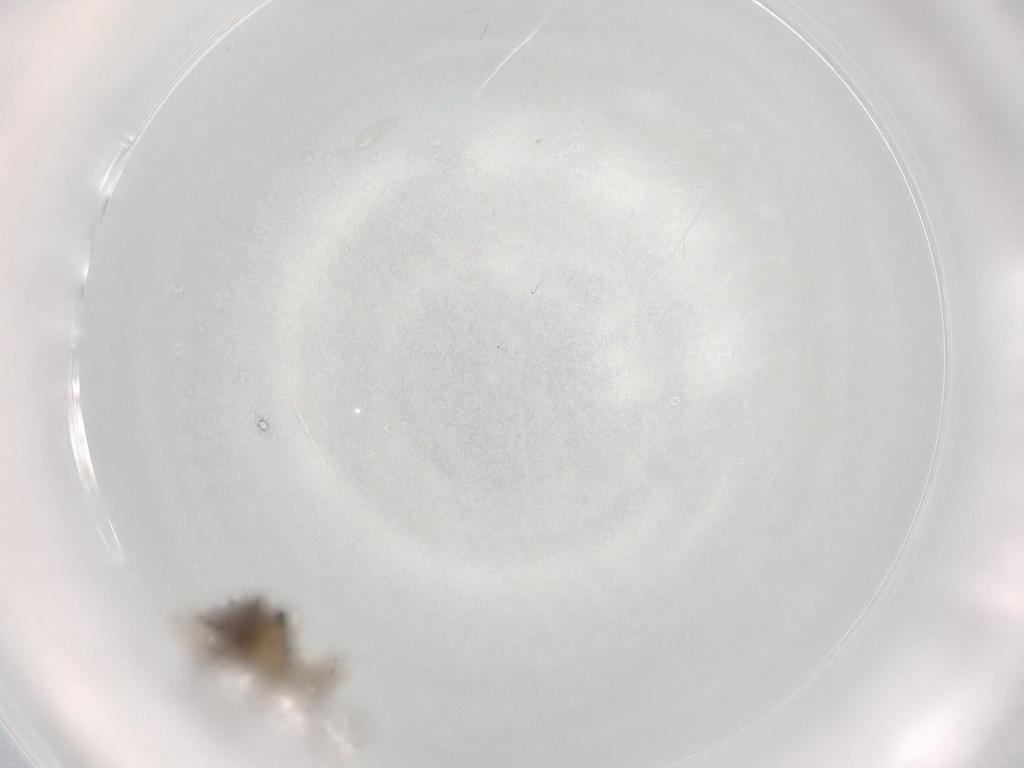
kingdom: Animalia
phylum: Arthropoda
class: Insecta
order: Diptera
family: Phoridae
